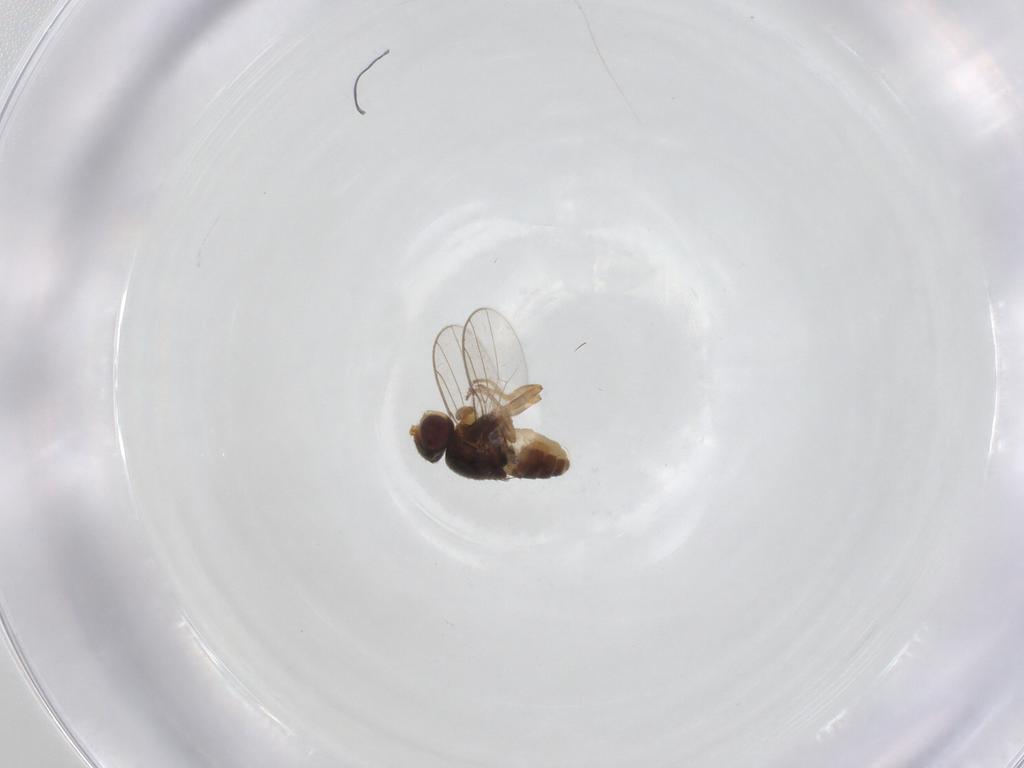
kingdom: Animalia
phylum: Arthropoda
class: Insecta
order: Diptera
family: Chloropidae
